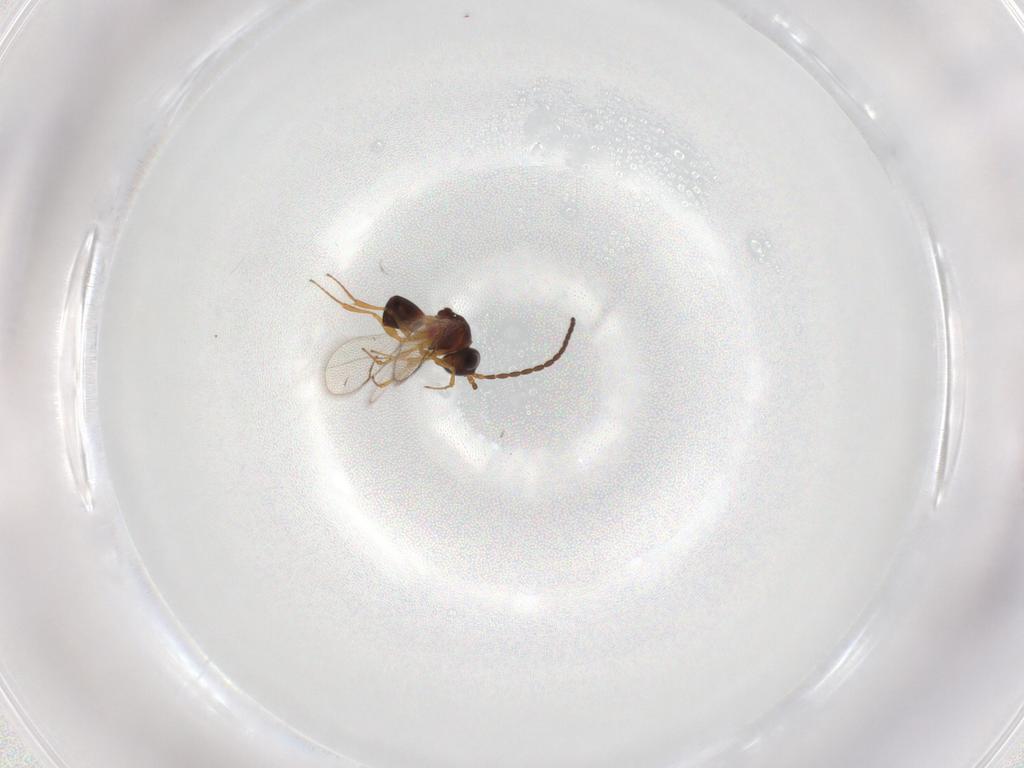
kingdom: Animalia
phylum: Arthropoda
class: Insecta
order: Hymenoptera
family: Figitidae
